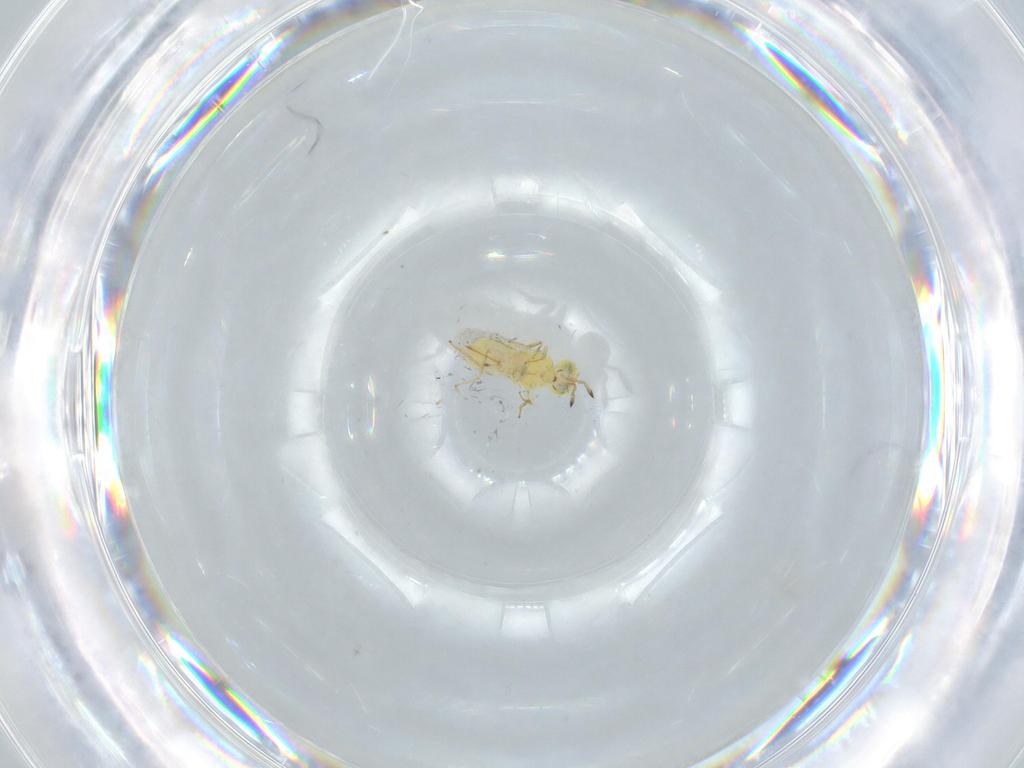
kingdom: Animalia
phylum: Arthropoda
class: Insecta
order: Hymenoptera
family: Aphelinidae
